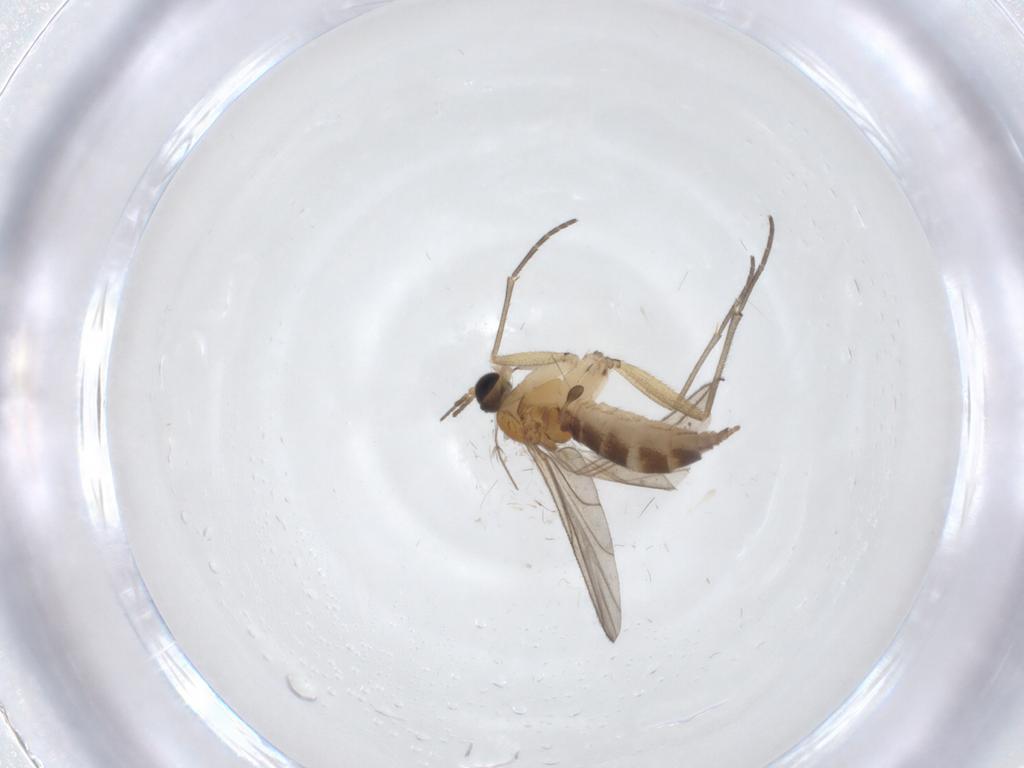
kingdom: Animalia
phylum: Arthropoda
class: Insecta
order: Diptera
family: Sciaridae
